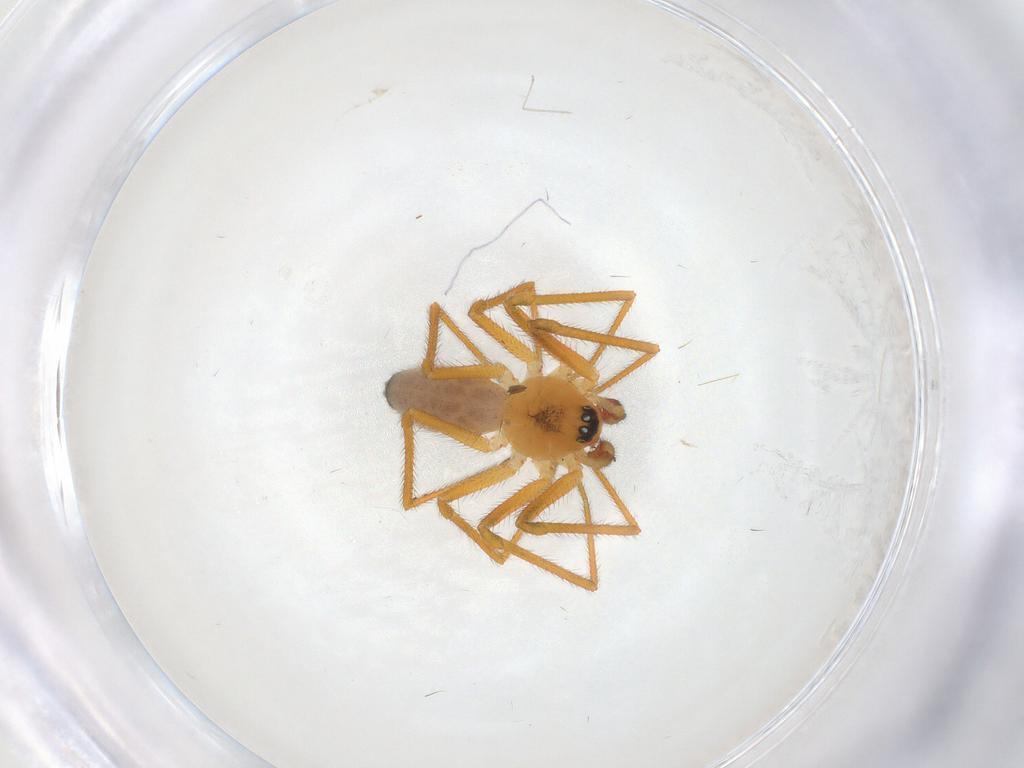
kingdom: Animalia
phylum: Arthropoda
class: Arachnida
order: Araneae
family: Linyphiidae
